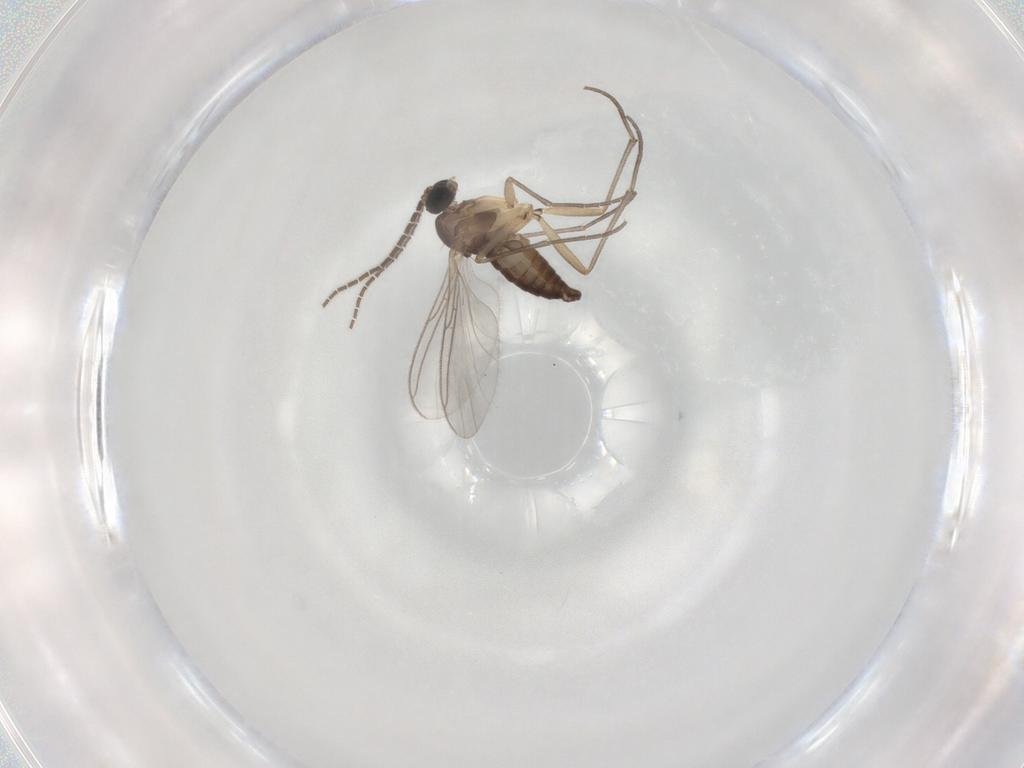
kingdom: Animalia
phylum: Arthropoda
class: Insecta
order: Diptera
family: Sciaridae
